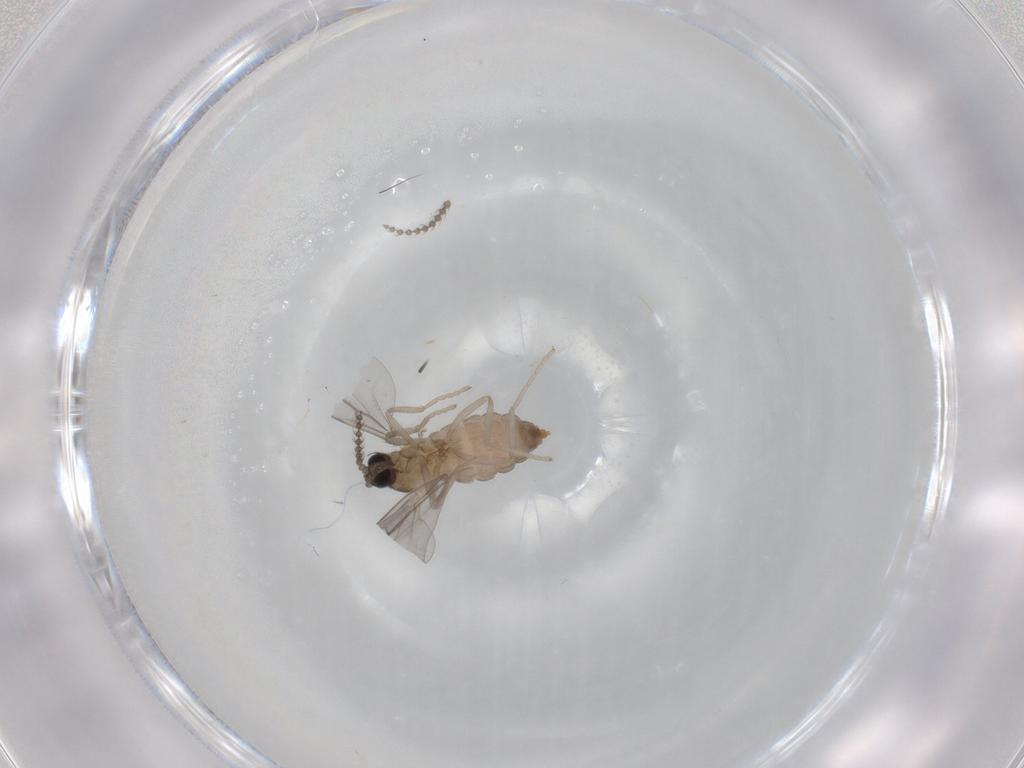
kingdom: Animalia
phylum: Arthropoda
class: Insecta
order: Diptera
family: Cecidomyiidae
